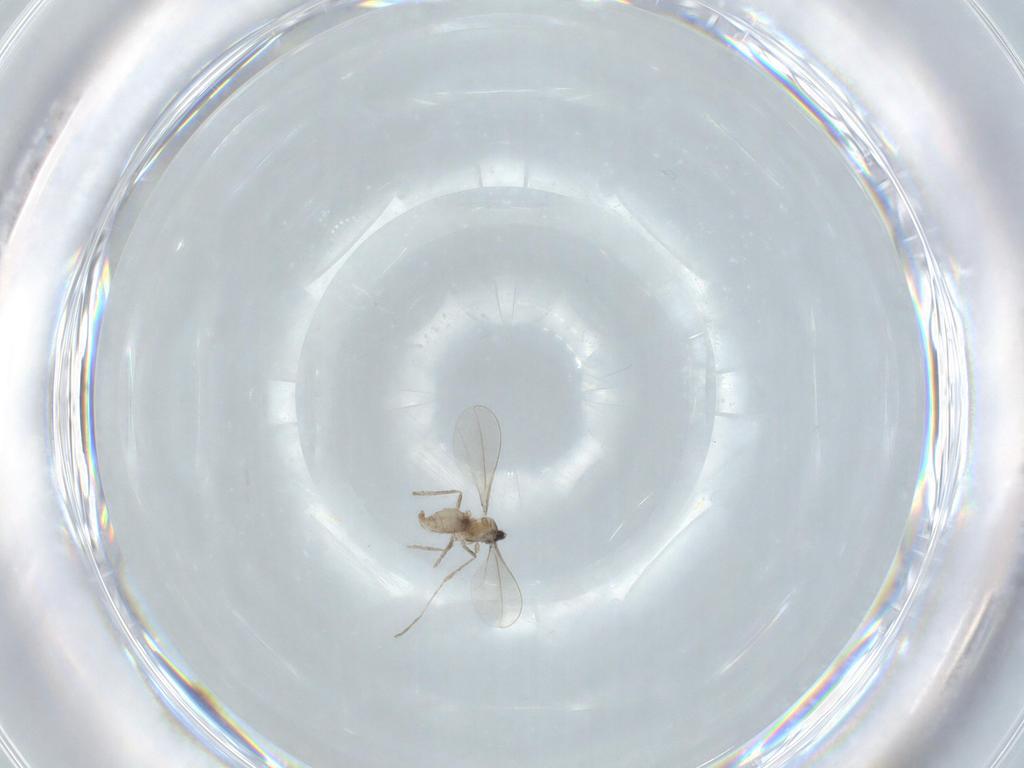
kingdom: Animalia
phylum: Arthropoda
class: Insecta
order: Diptera
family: Cecidomyiidae
